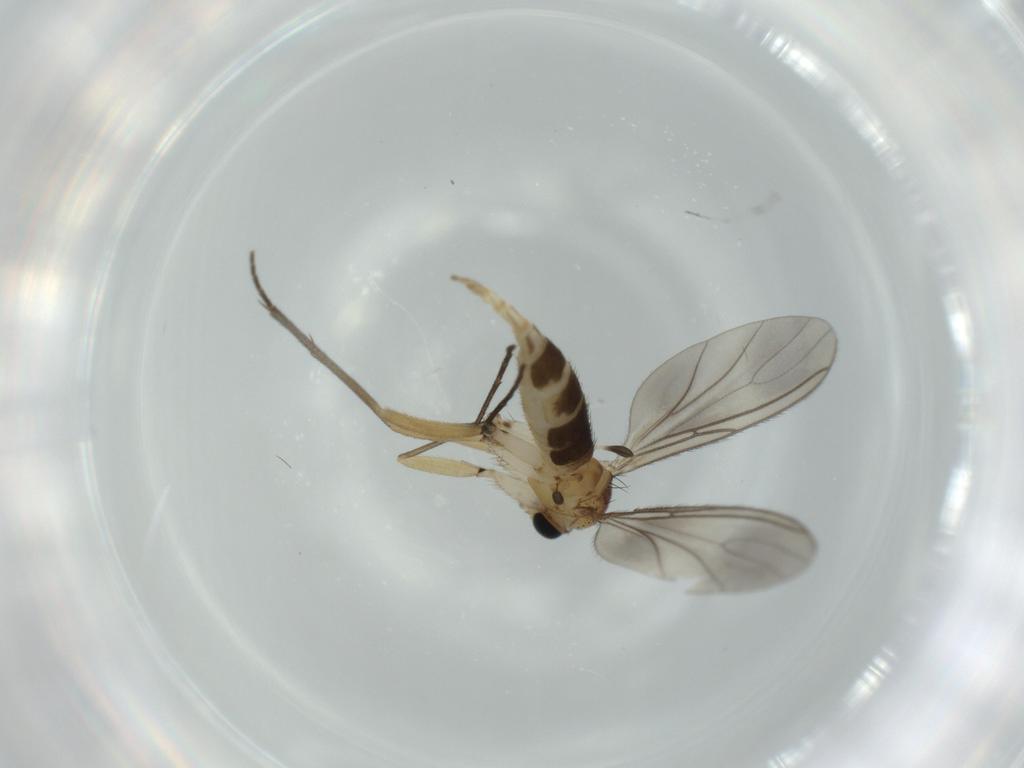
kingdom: Animalia
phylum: Arthropoda
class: Insecta
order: Diptera
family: Sciaridae
